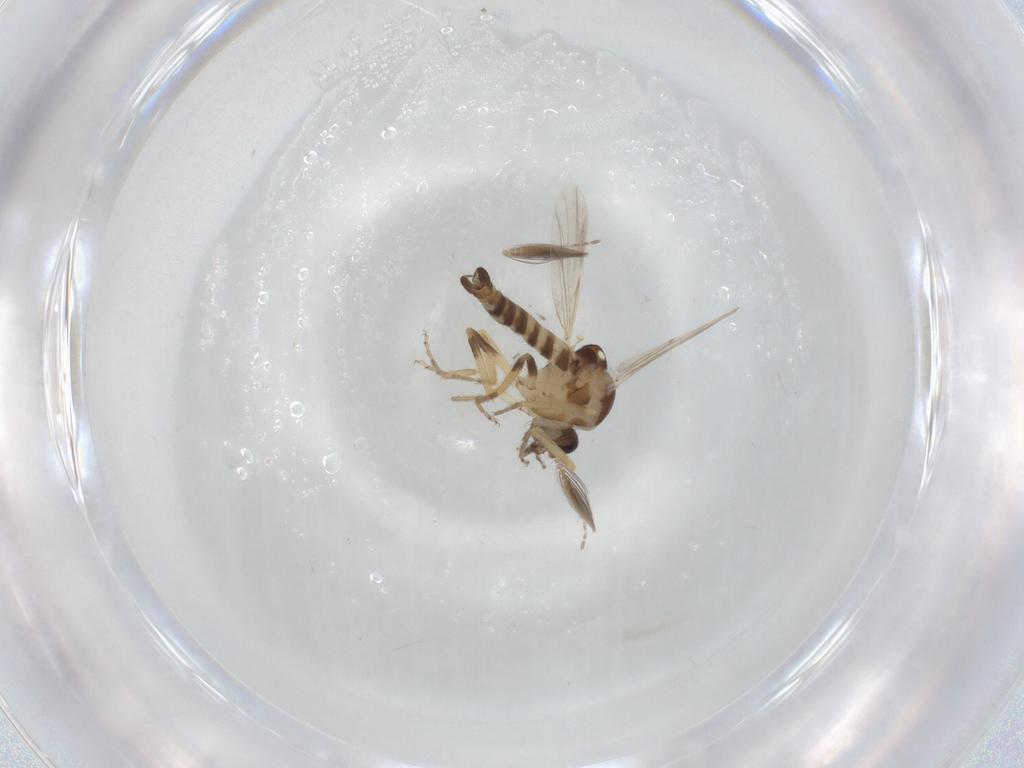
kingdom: Animalia
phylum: Arthropoda
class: Insecta
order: Diptera
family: Ceratopogonidae
